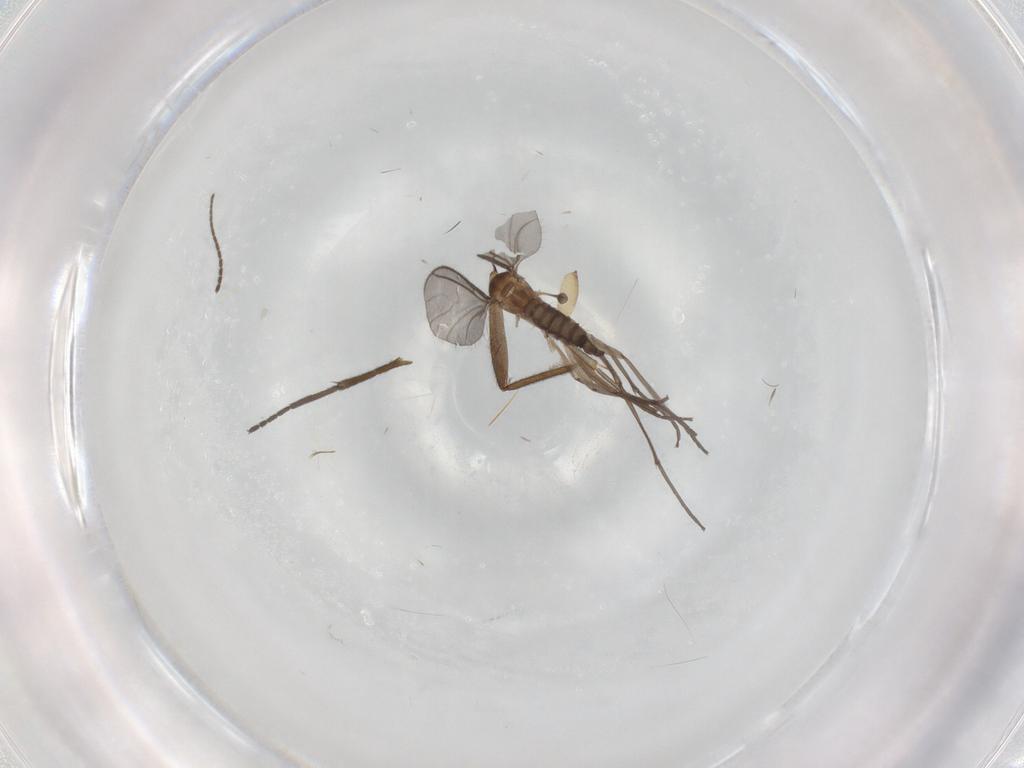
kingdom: Animalia
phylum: Arthropoda
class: Insecta
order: Diptera
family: Sciaridae
